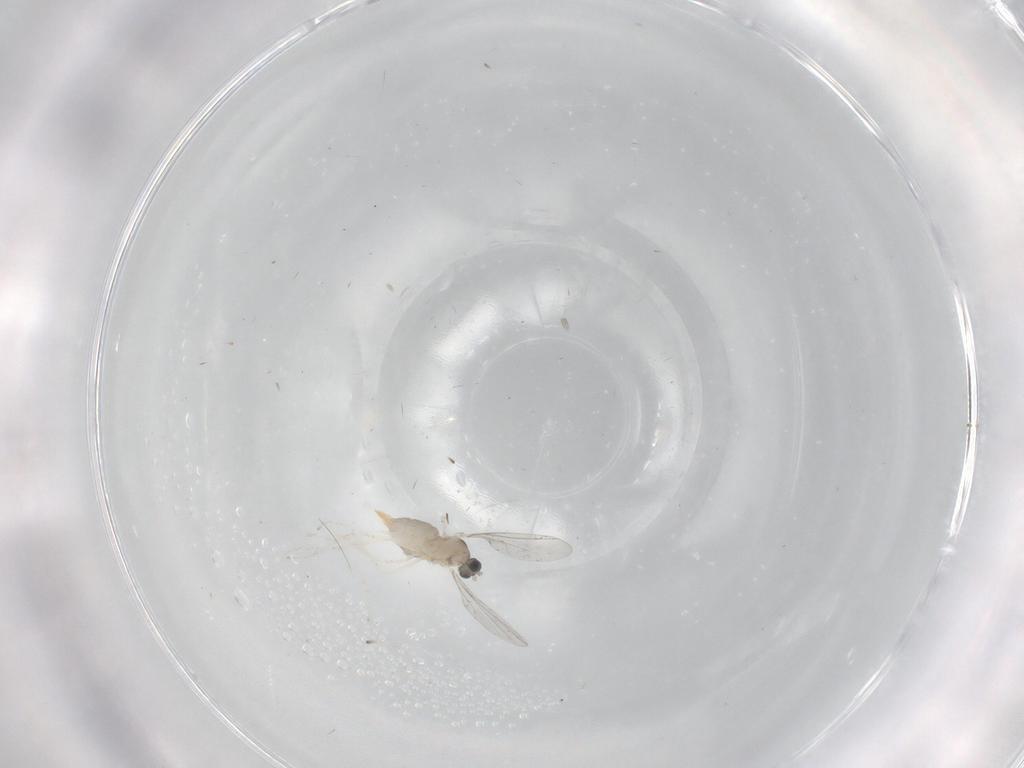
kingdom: Animalia
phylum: Arthropoda
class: Insecta
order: Diptera
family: Cecidomyiidae
